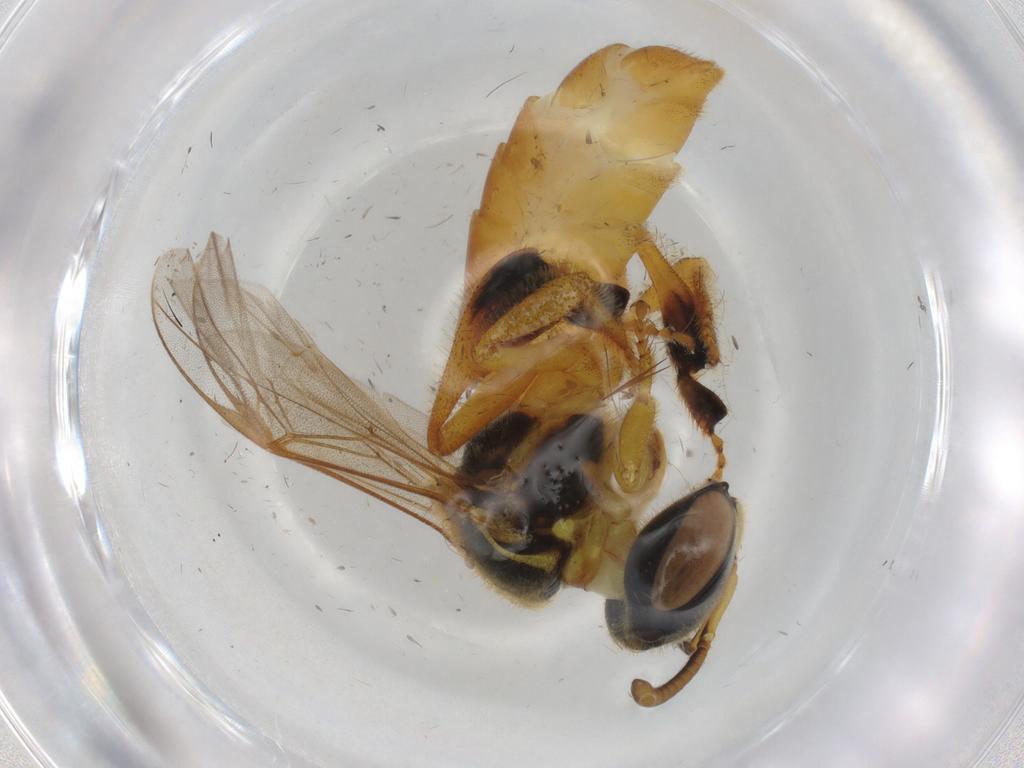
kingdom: Animalia
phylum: Arthropoda
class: Insecta
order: Hymenoptera
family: Apidae
